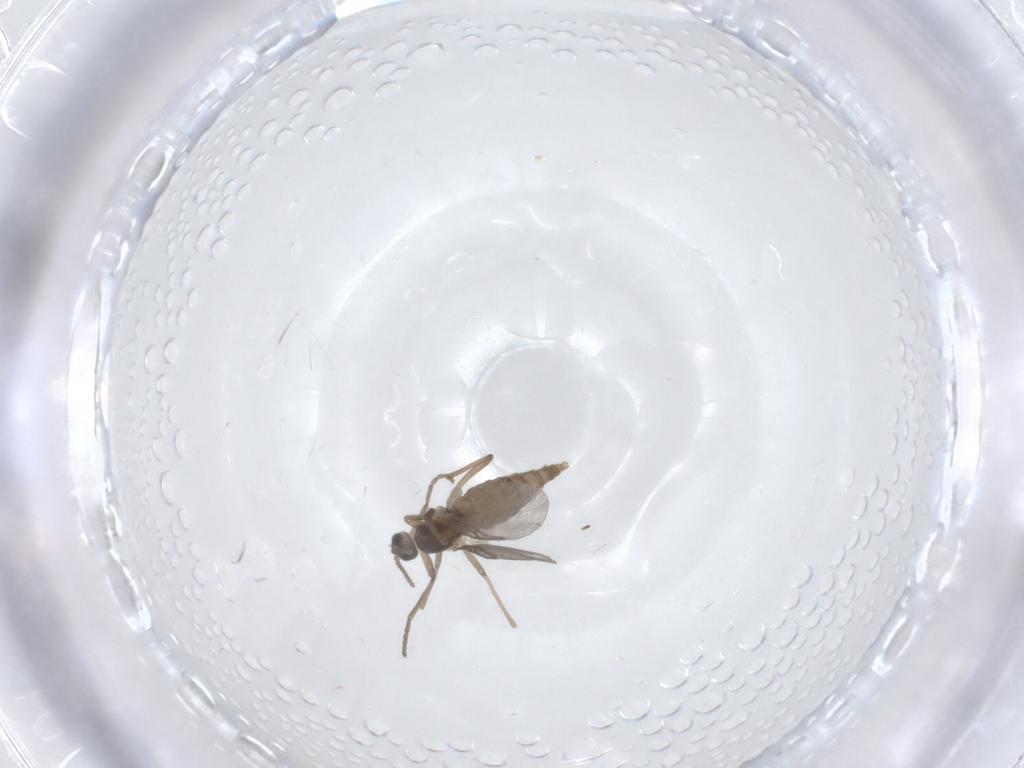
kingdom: Animalia
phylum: Arthropoda
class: Insecta
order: Diptera
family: Cecidomyiidae
